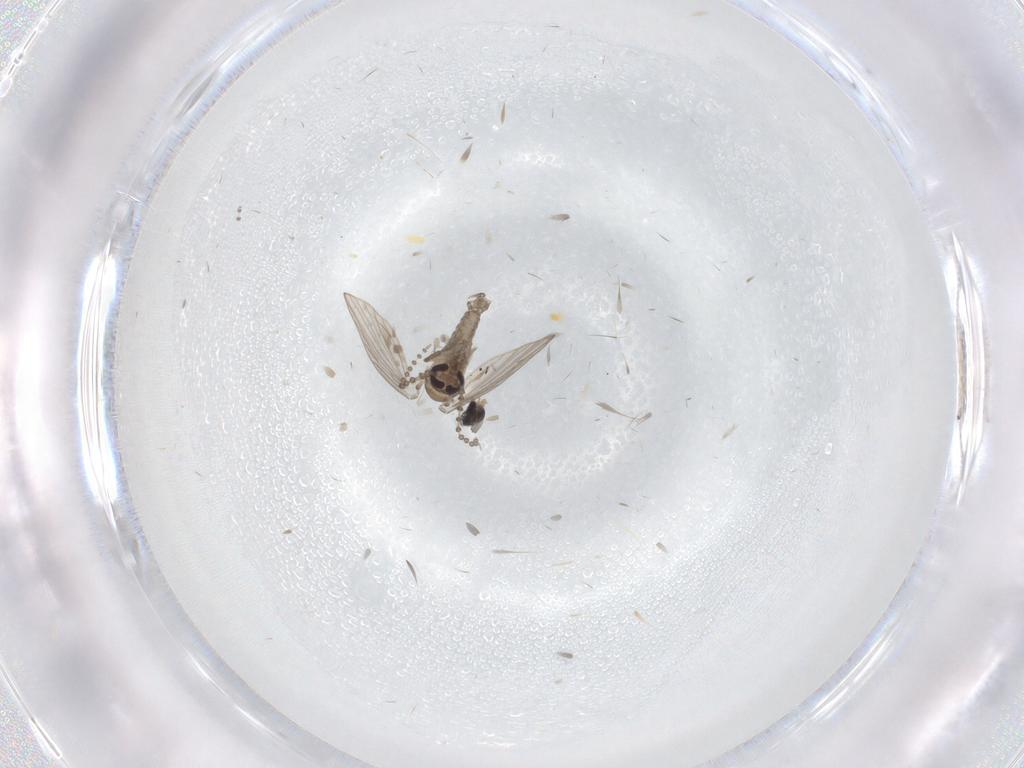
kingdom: Animalia
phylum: Arthropoda
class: Insecta
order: Diptera
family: Psychodidae
